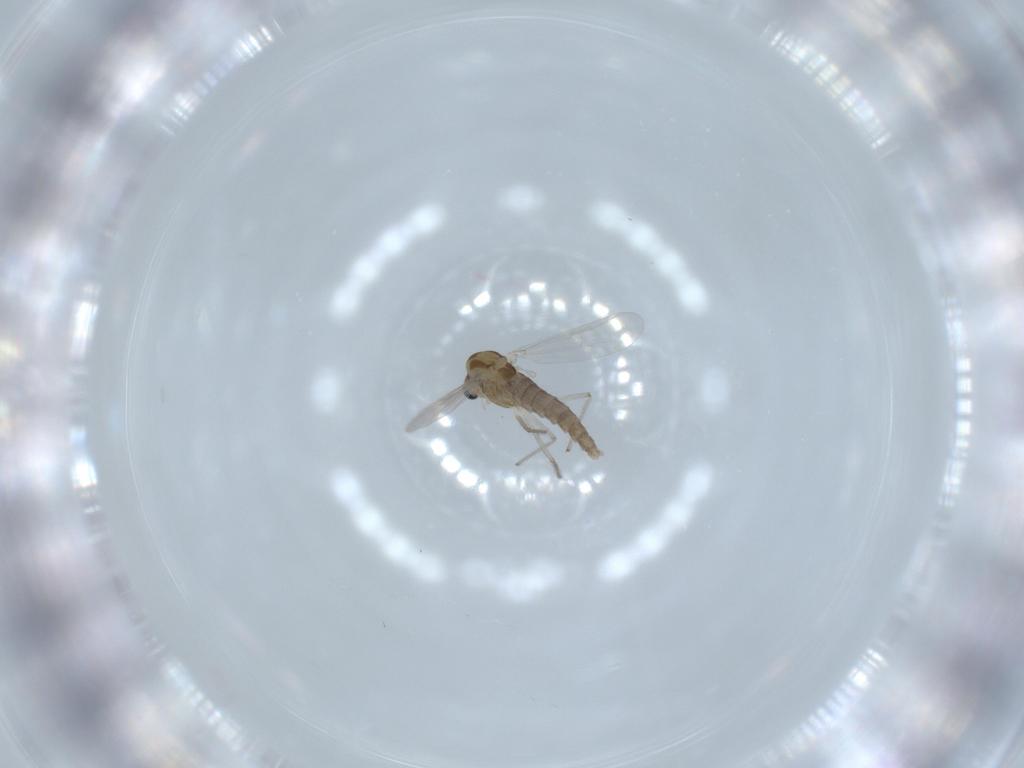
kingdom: Animalia
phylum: Arthropoda
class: Insecta
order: Diptera
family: Chironomidae
